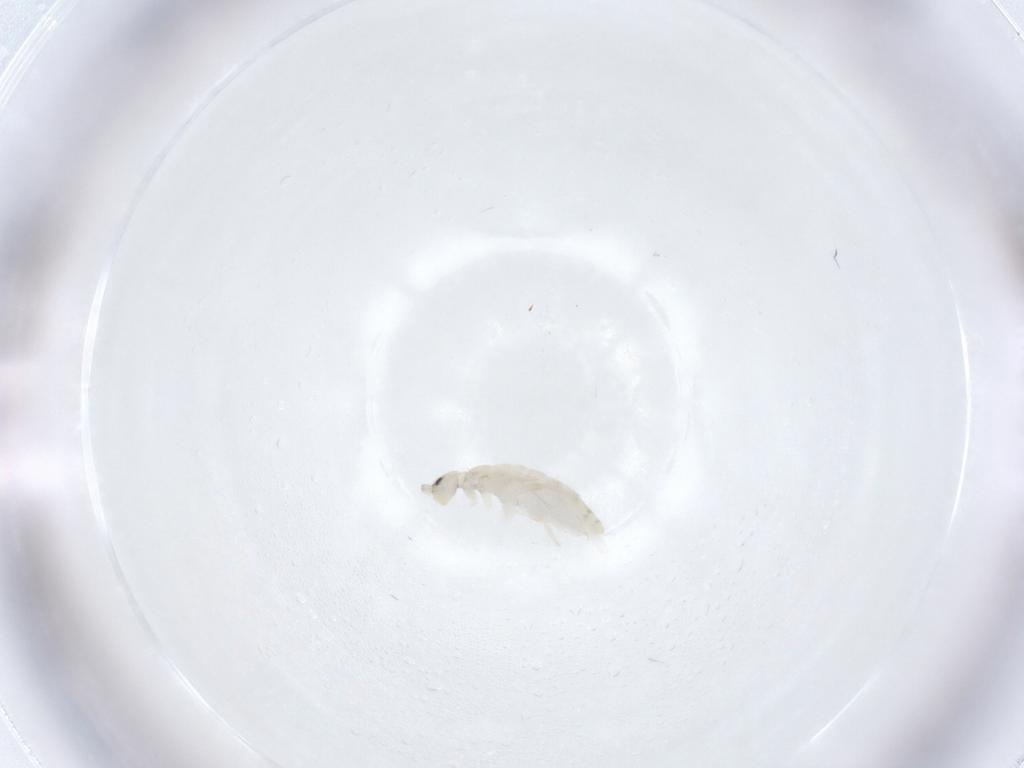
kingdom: Animalia
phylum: Arthropoda
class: Collembola
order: Entomobryomorpha
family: Entomobryidae
